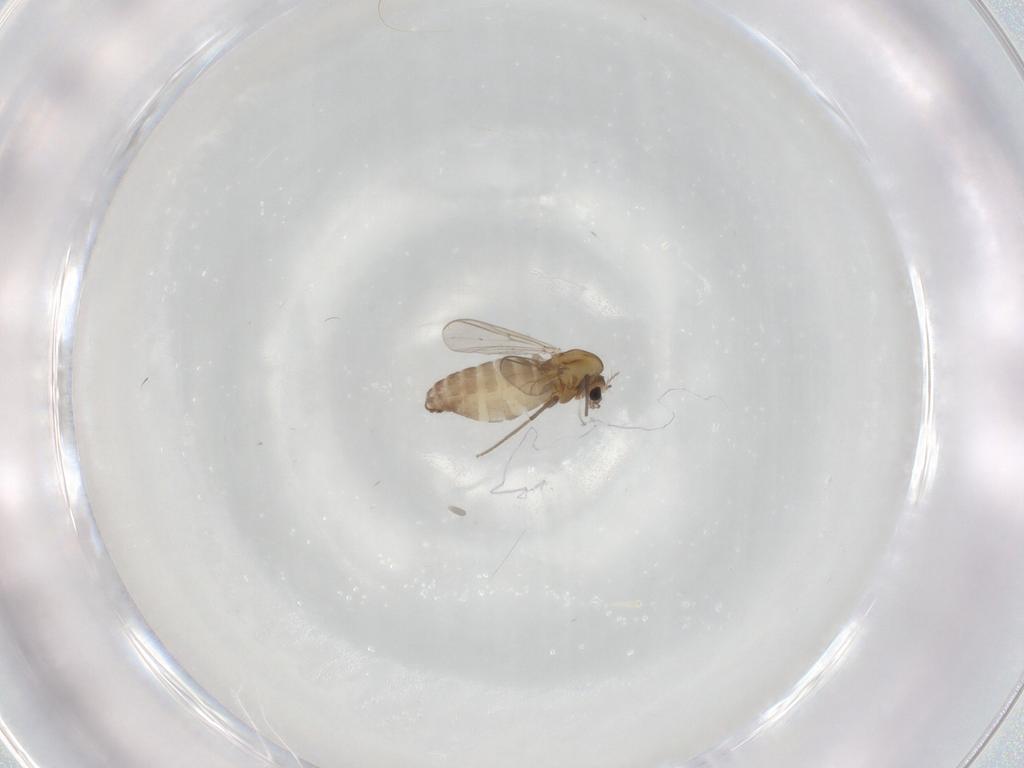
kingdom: Animalia
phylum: Arthropoda
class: Insecta
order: Diptera
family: Chironomidae
